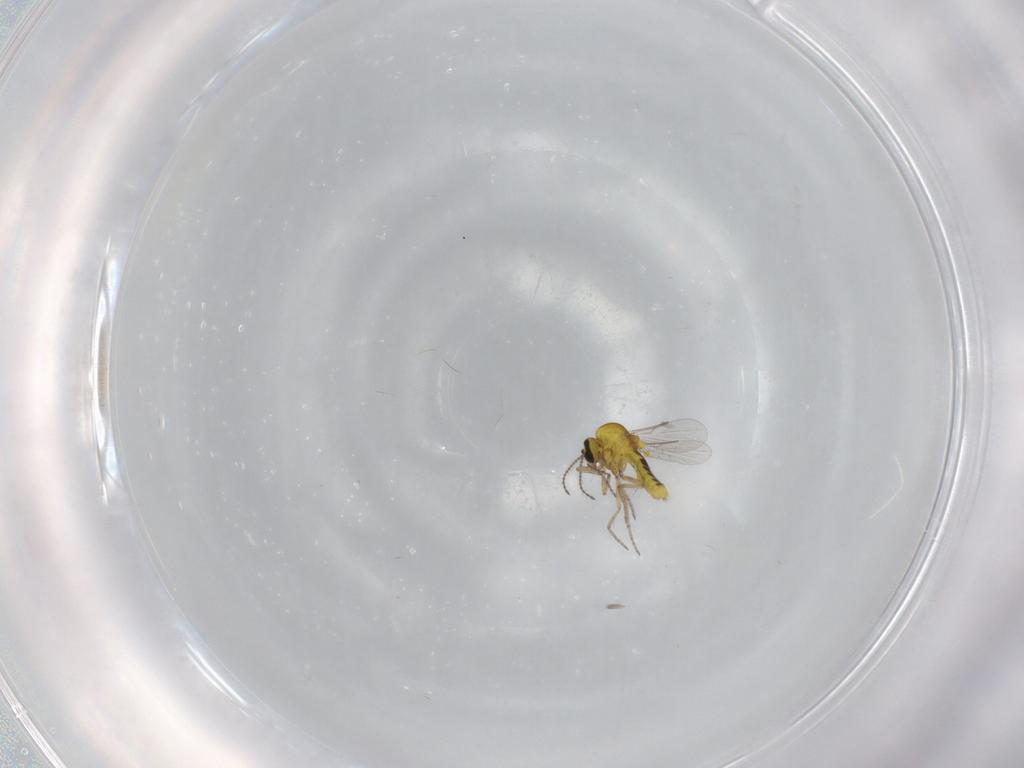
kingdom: Animalia
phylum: Arthropoda
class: Insecta
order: Diptera
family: Ceratopogonidae
